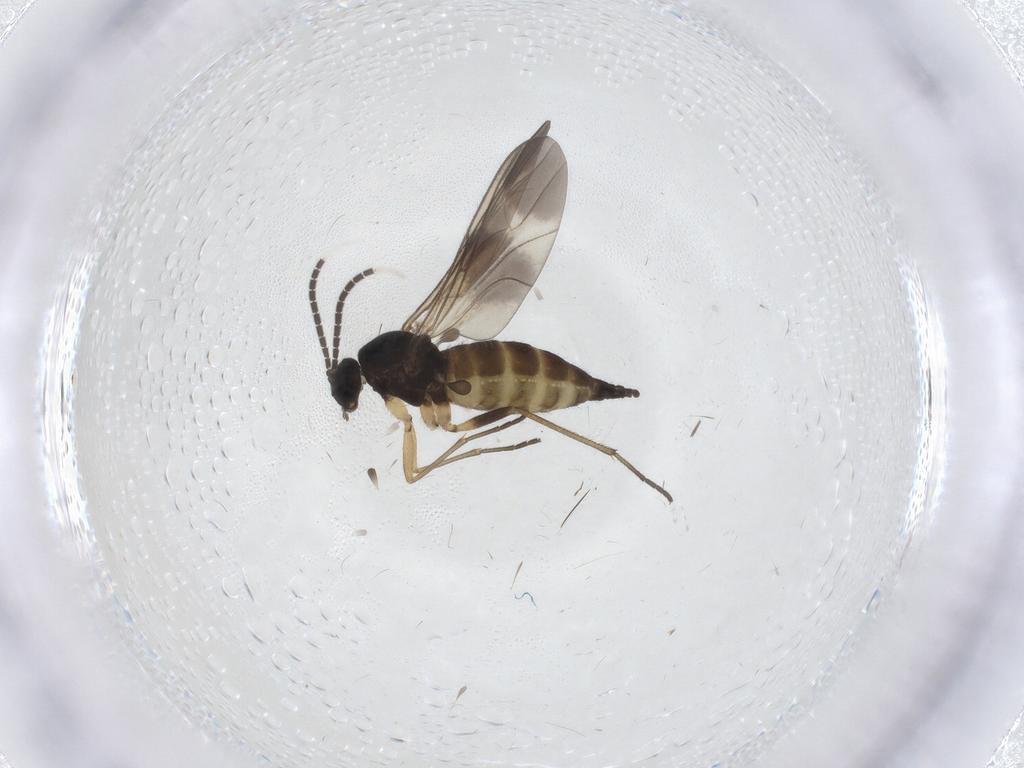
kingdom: Animalia
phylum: Arthropoda
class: Insecta
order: Diptera
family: Sciaridae
